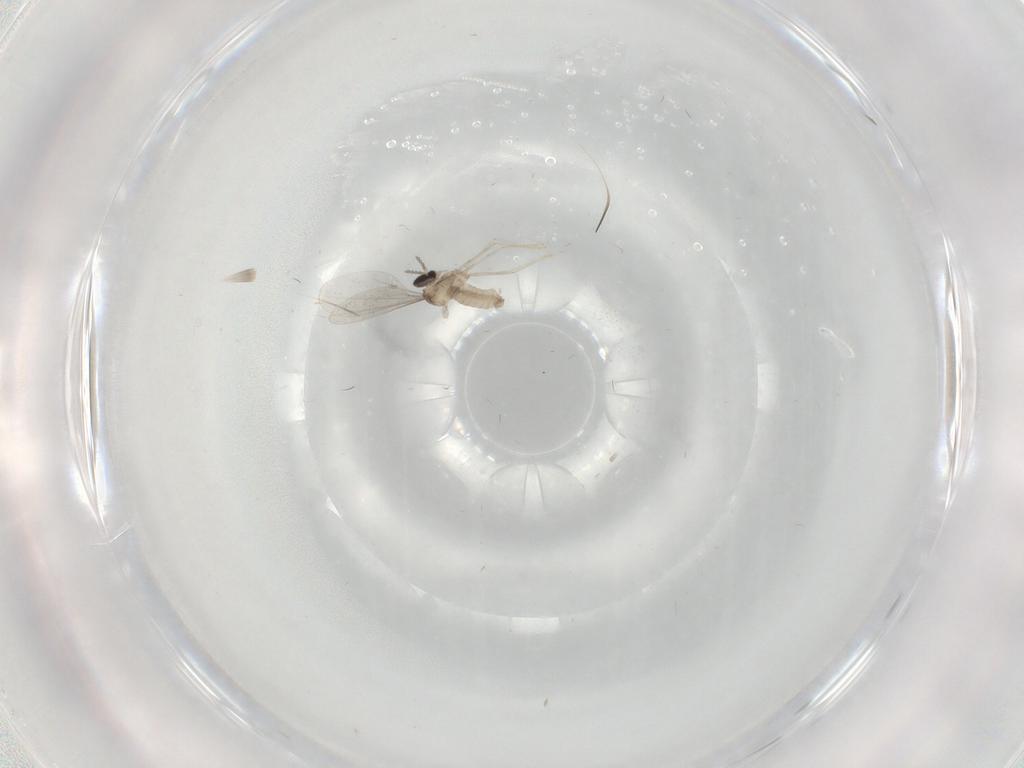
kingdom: Animalia
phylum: Arthropoda
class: Insecta
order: Diptera
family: Cecidomyiidae
